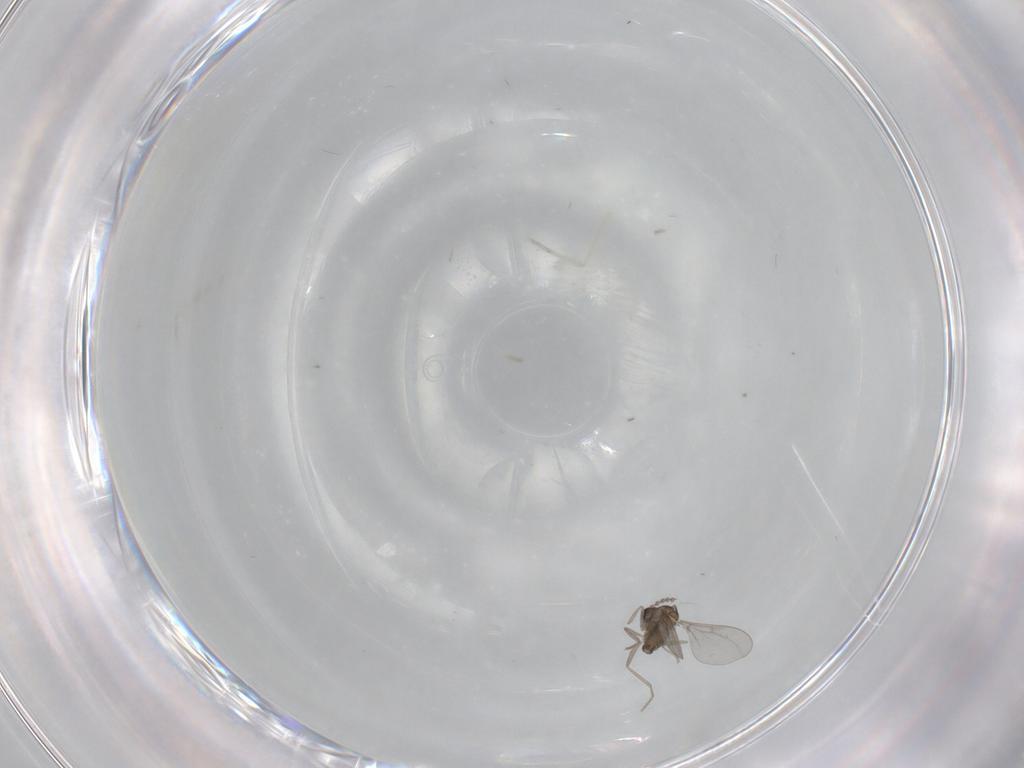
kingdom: Animalia
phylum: Arthropoda
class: Insecta
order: Diptera
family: Cecidomyiidae
